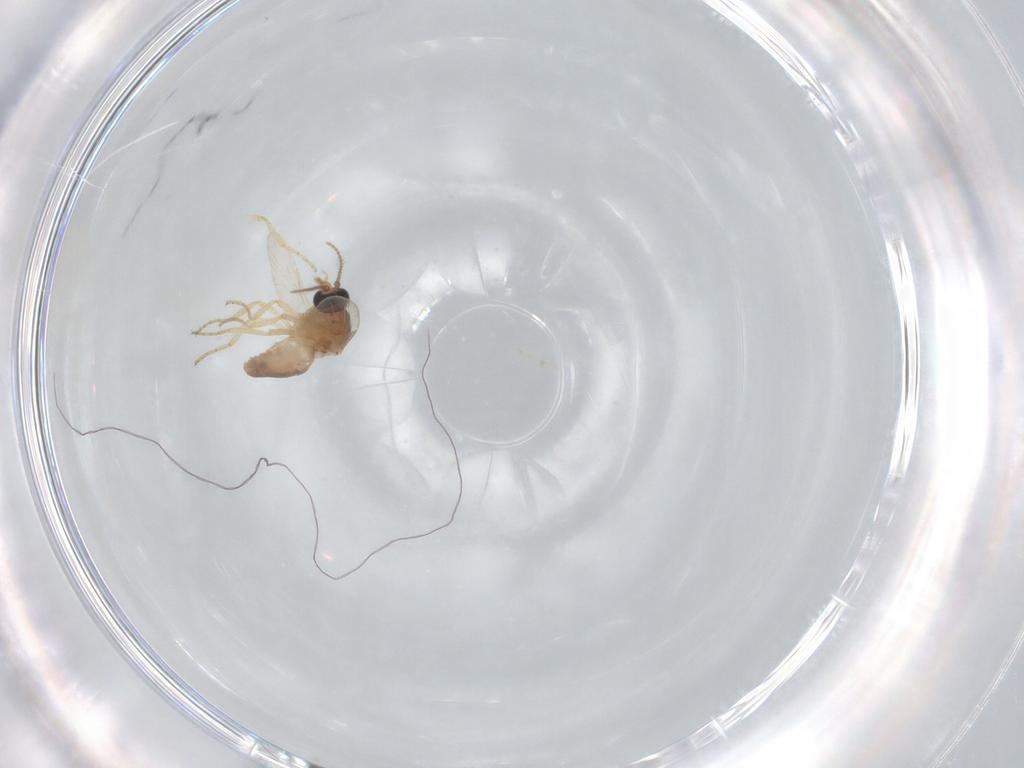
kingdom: Animalia
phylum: Arthropoda
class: Insecta
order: Diptera
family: Ceratopogonidae
